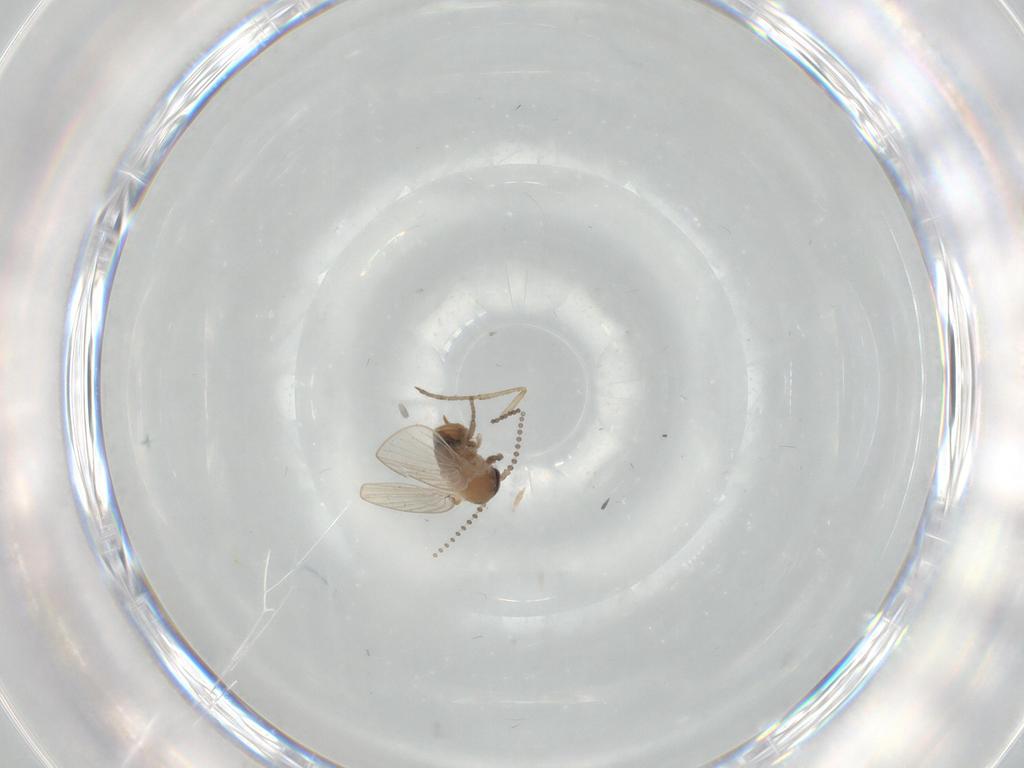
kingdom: Animalia
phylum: Arthropoda
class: Insecta
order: Diptera
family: Psychodidae
